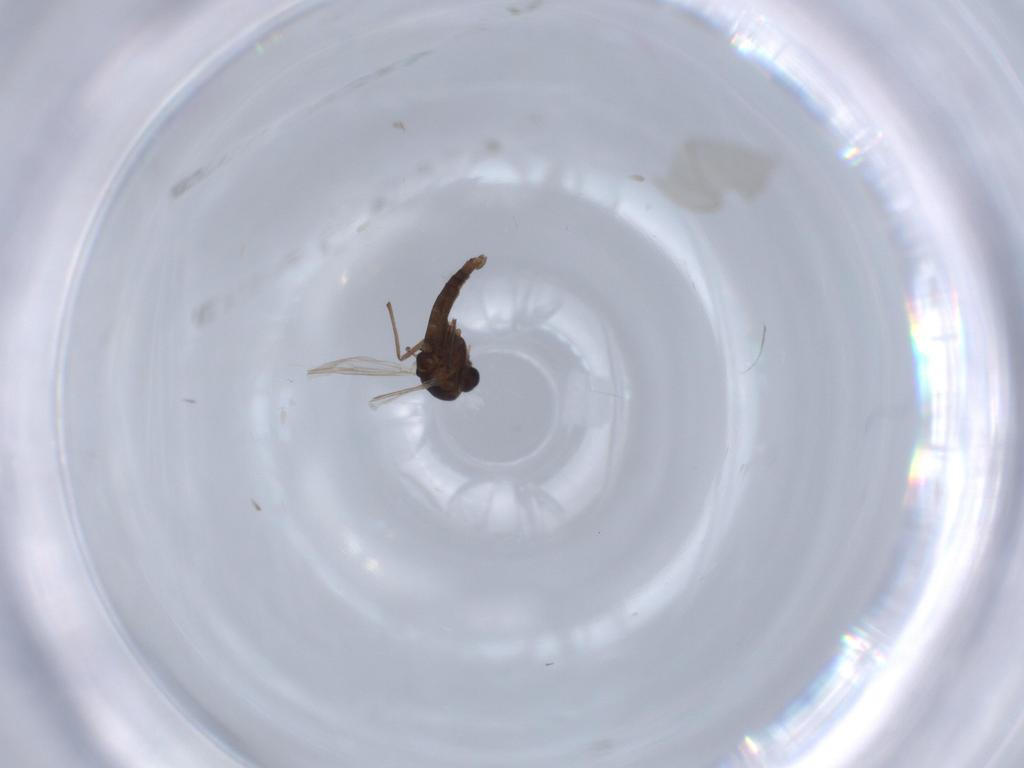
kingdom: Animalia
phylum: Arthropoda
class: Insecta
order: Diptera
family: Chironomidae
